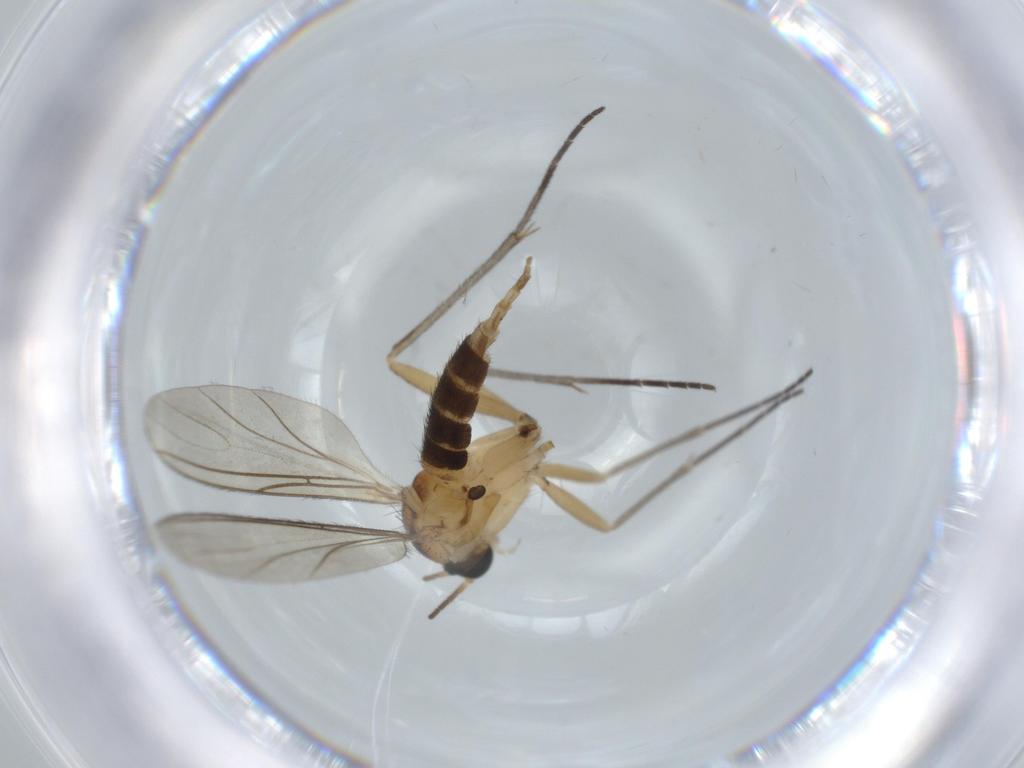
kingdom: Animalia
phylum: Arthropoda
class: Insecta
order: Diptera
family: Sciaridae
